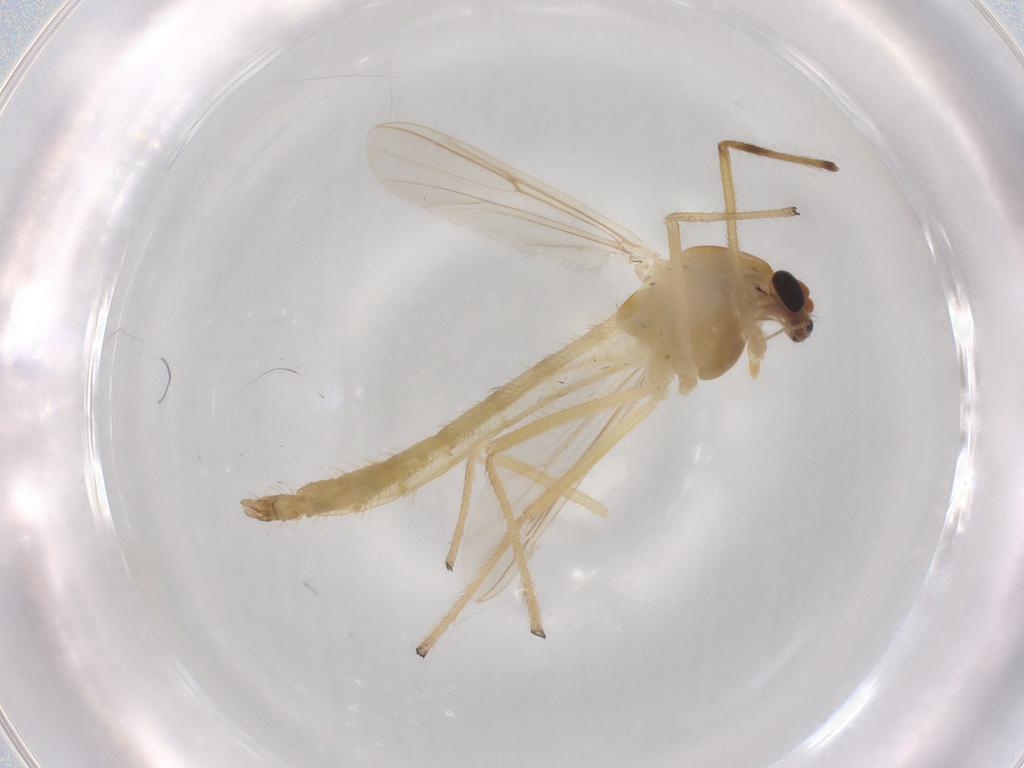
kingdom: Animalia
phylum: Arthropoda
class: Insecta
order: Diptera
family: Chironomidae
